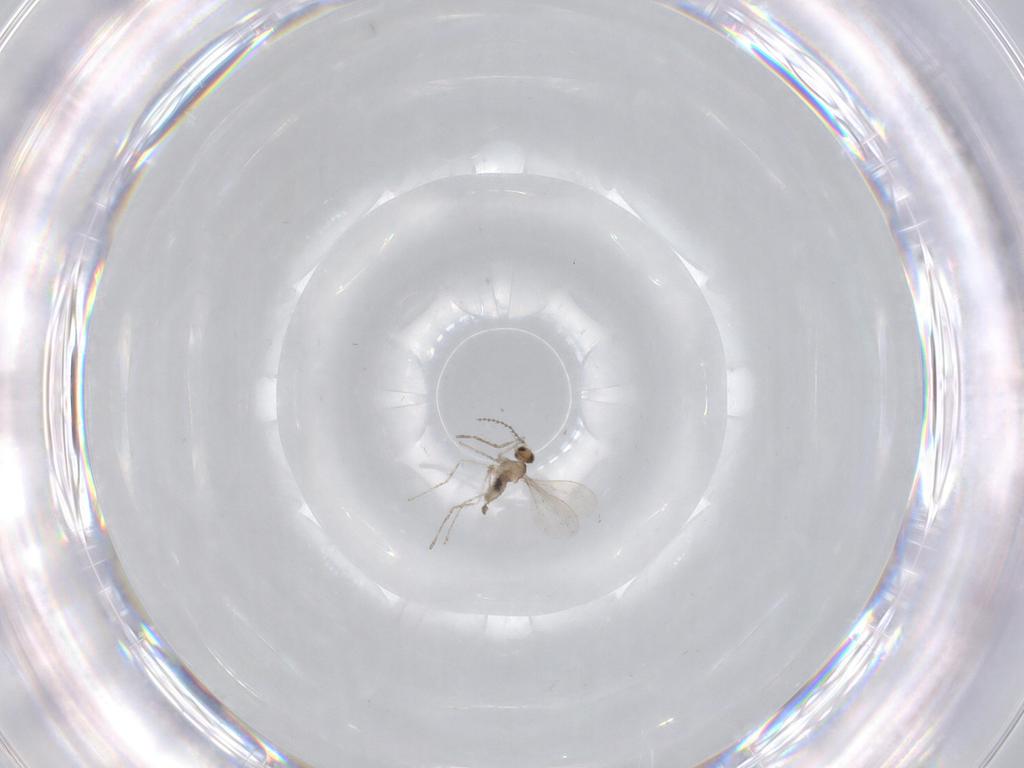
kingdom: Animalia
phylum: Arthropoda
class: Insecta
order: Diptera
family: Cecidomyiidae
